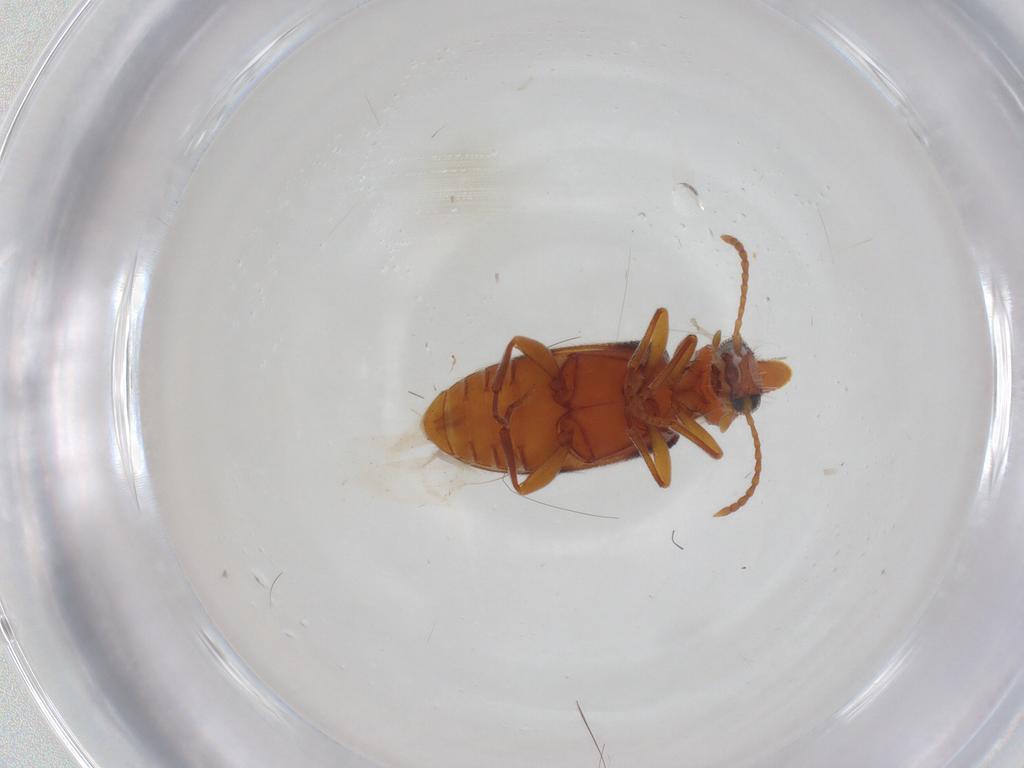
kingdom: Animalia
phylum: Arthropoda
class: Insecta
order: Coleoptera
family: Anthicidae
